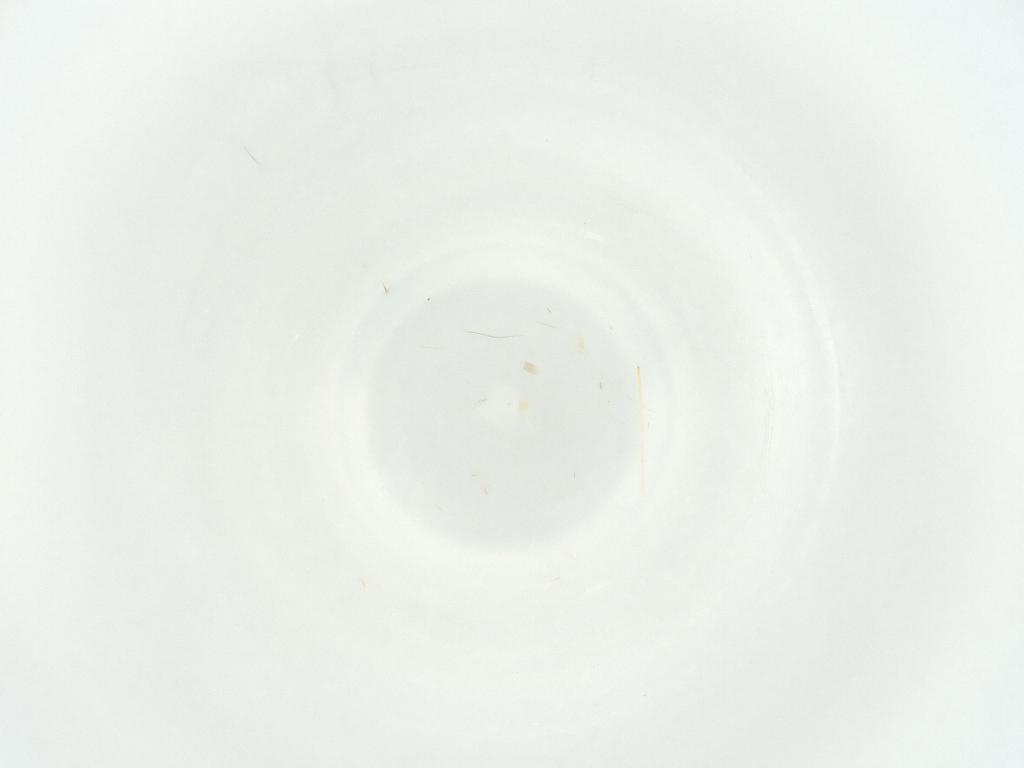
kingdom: Animalia
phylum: Arthropoda
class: Insecta
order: Diptera
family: Sciaridae
